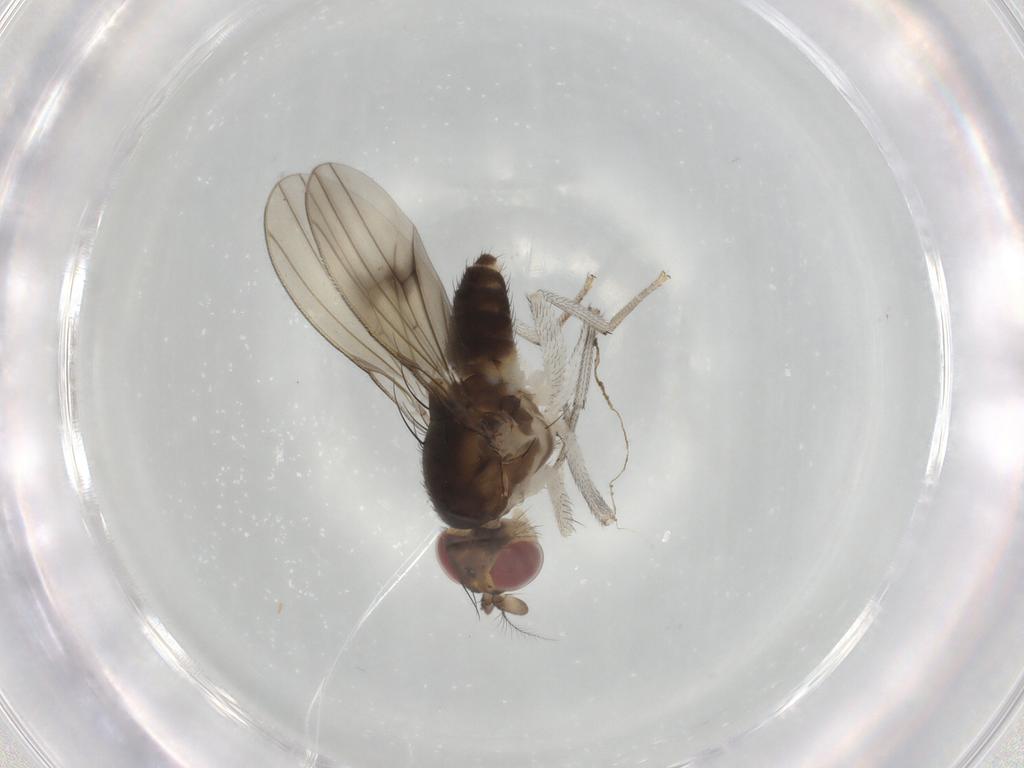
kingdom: Animalia
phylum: Arthropoda
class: Insecta
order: Diptera
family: Lauxaniidae
